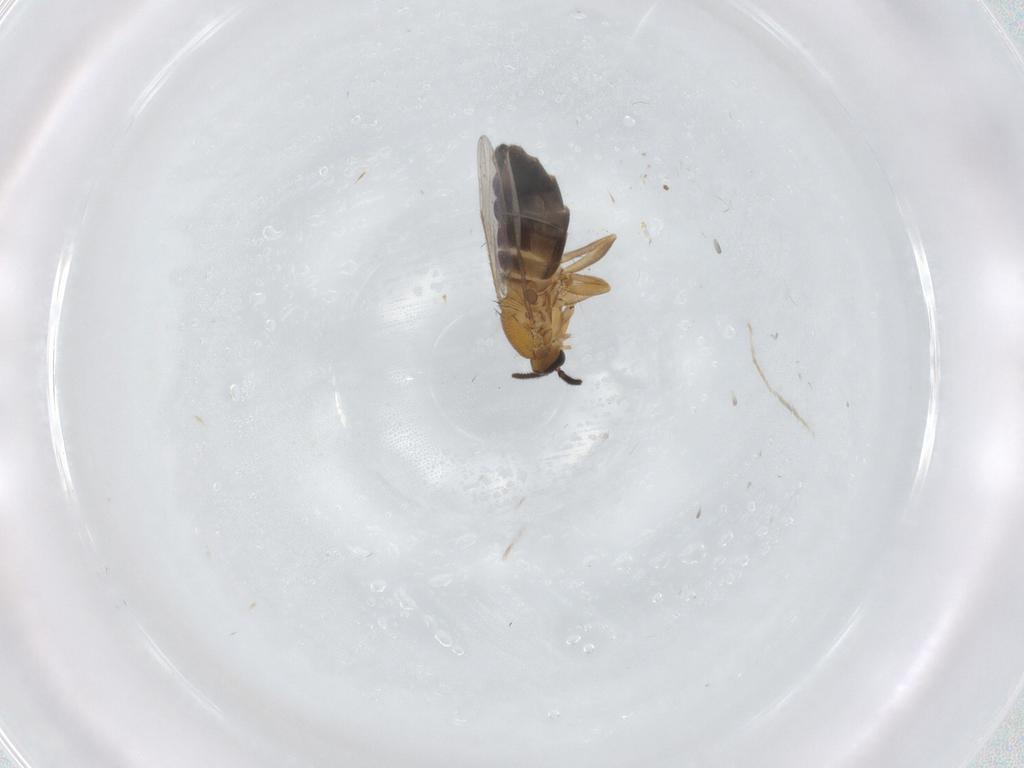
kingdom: Animalia
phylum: Arthropoda
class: Insecta
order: Diptera
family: Scatopsidae
